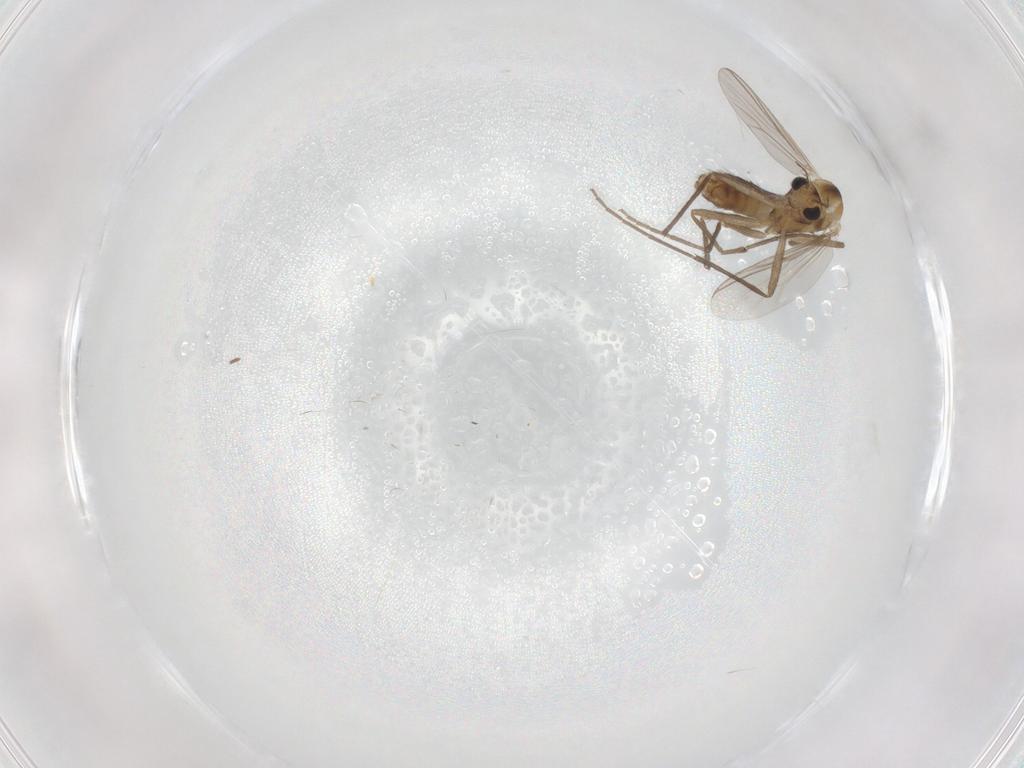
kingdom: Animalia
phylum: Arthropoda
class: Insecta
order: Diptera
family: Chironomidae
